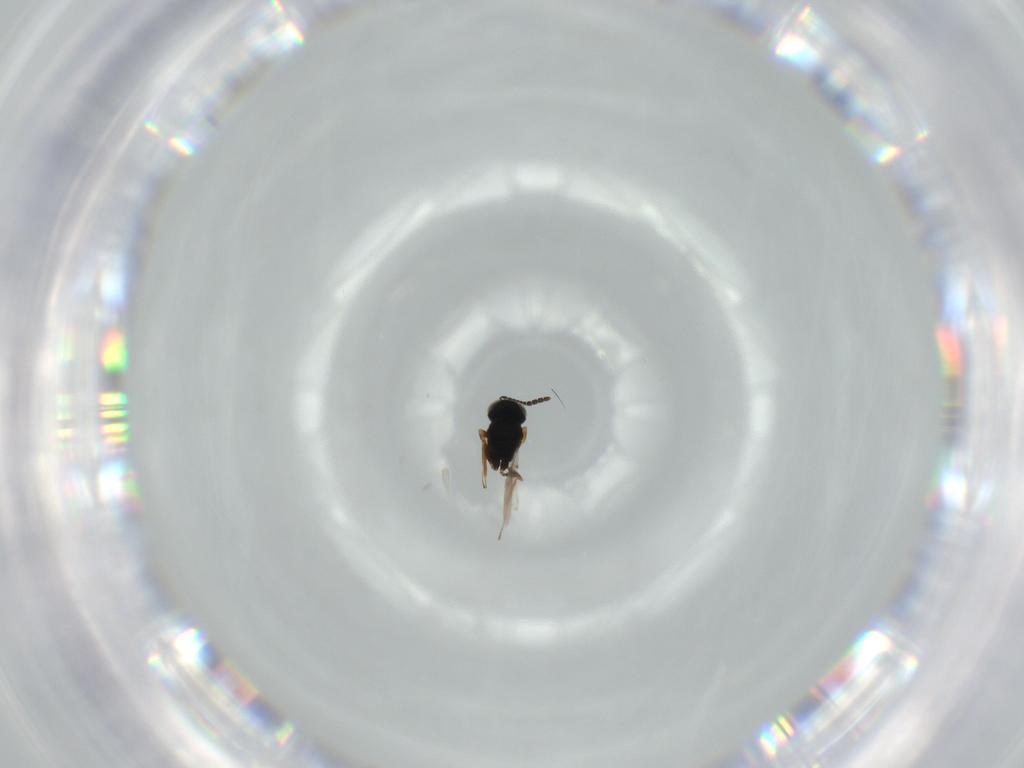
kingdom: Animalia
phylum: Arthropoda
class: Insecta
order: Hymenoptera
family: Scelionidae
